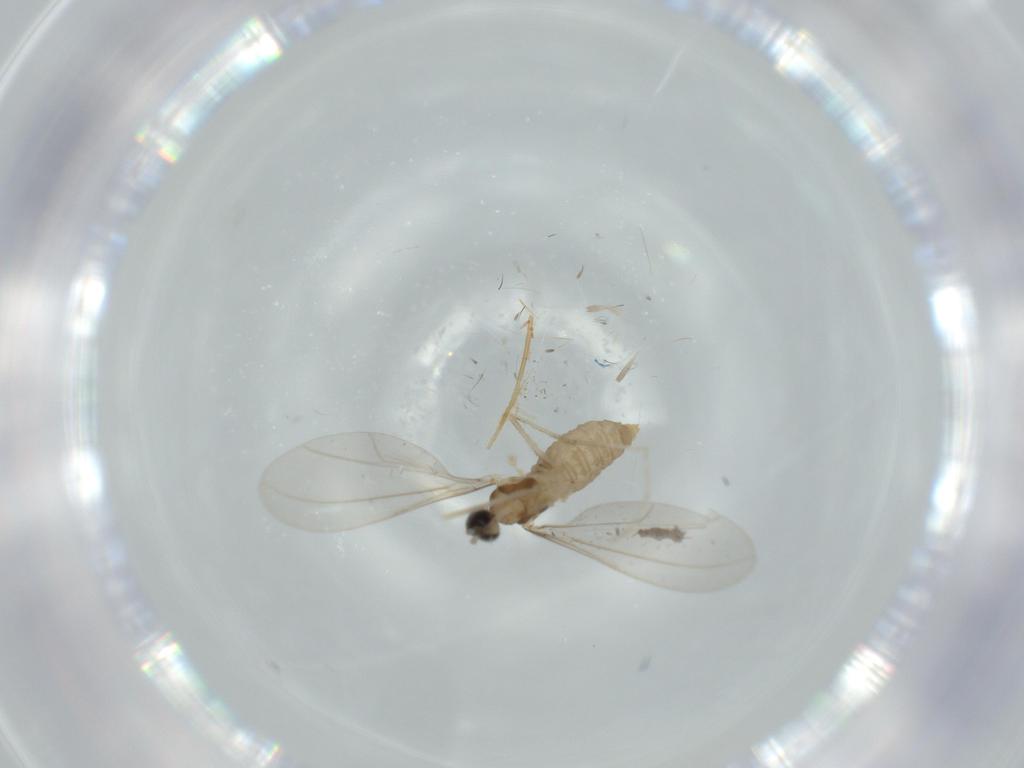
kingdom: Animalia
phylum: Arthropoda
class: Insecta
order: Diptera
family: Cecidomyiidae
